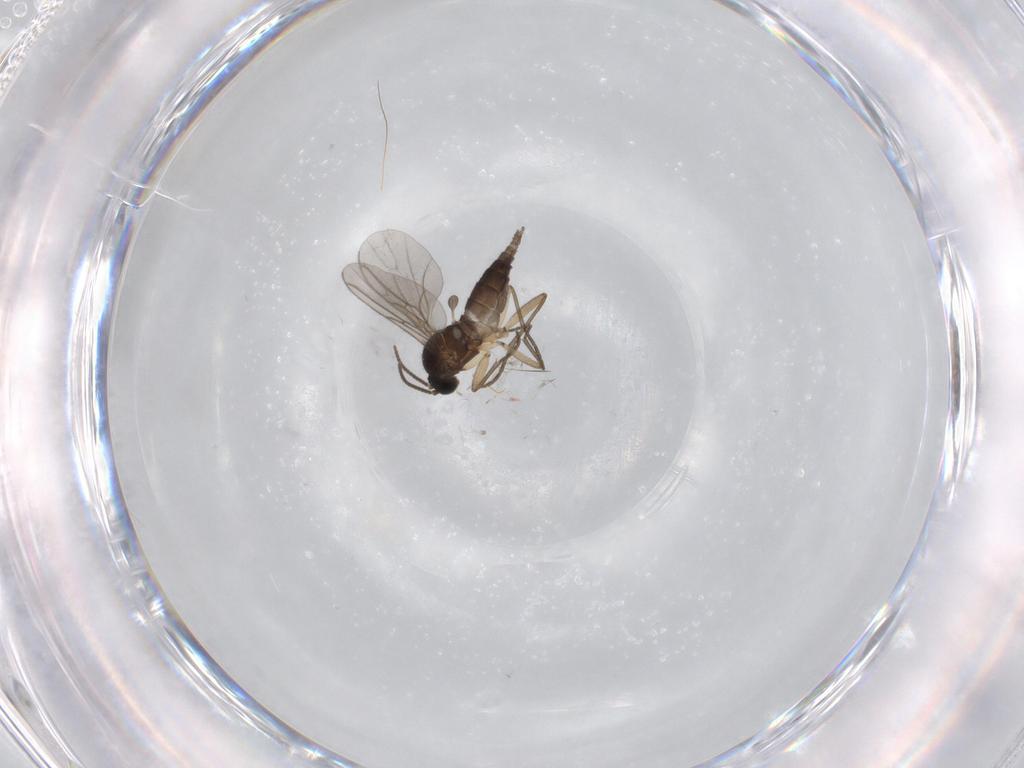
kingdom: Animalia
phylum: Arthropoda
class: Insecta
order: Diptera
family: Sciaridae
